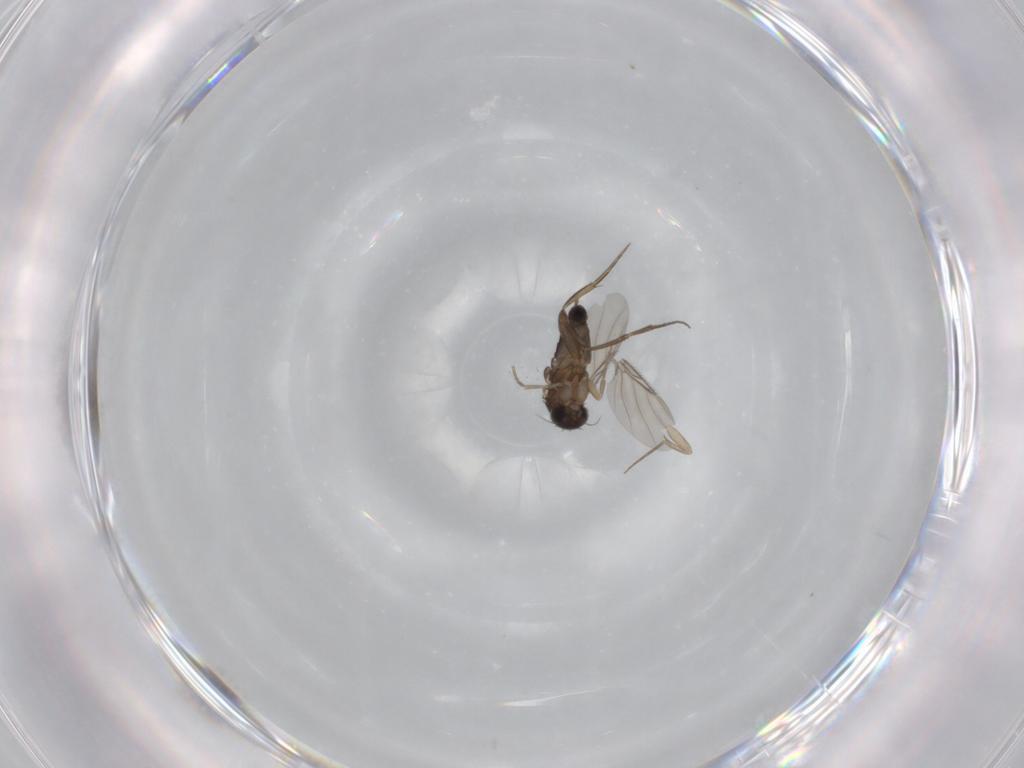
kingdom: Animalia
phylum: Arthropoda
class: Insecta
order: Diptera
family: Phoridae
